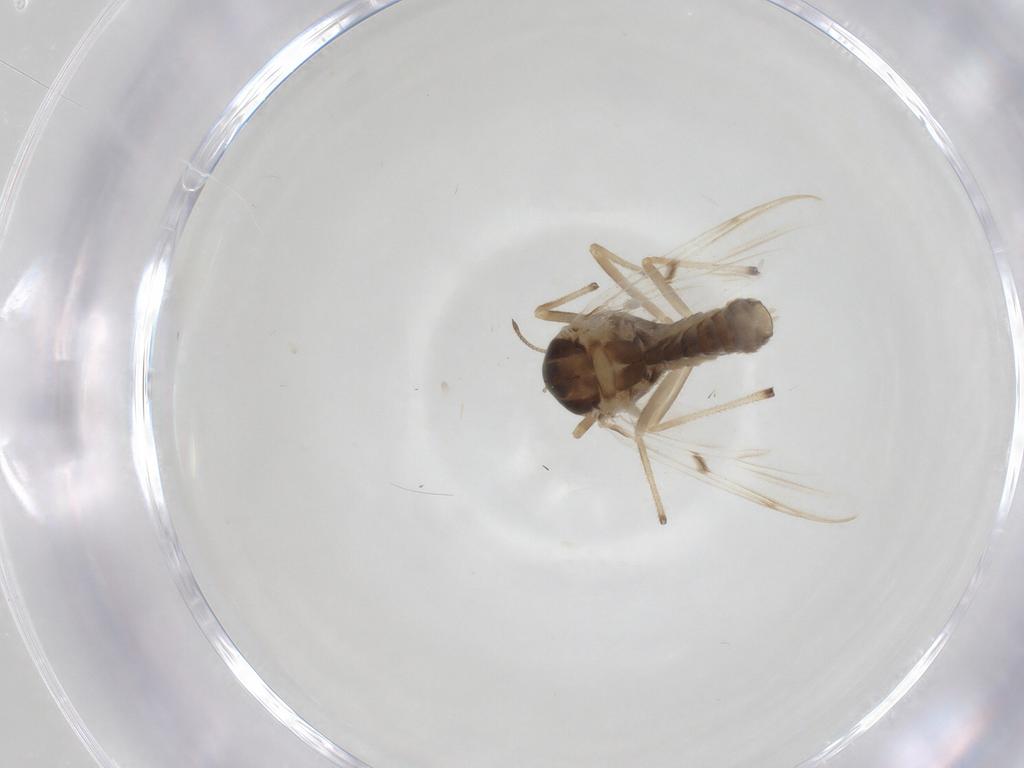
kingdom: Animalia
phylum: Arthropoda
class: Insecta
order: Diptera
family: Chironomidae
